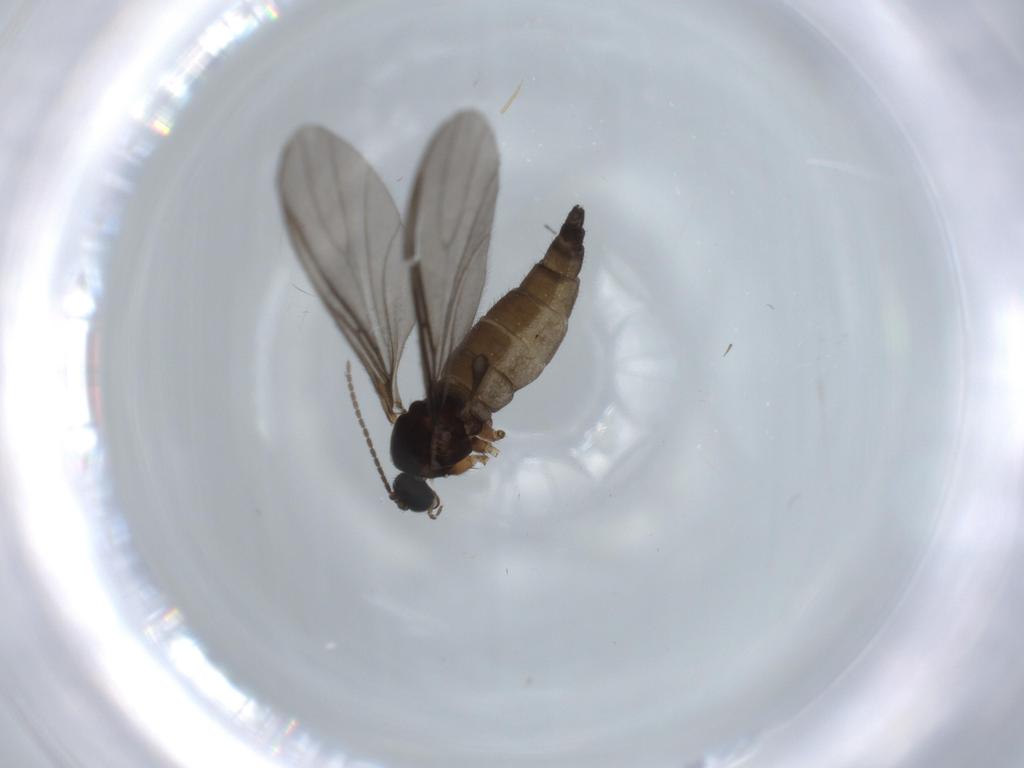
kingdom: Animalia
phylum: Arthropoda
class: Insecta
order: Diptera
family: Sciaridae
